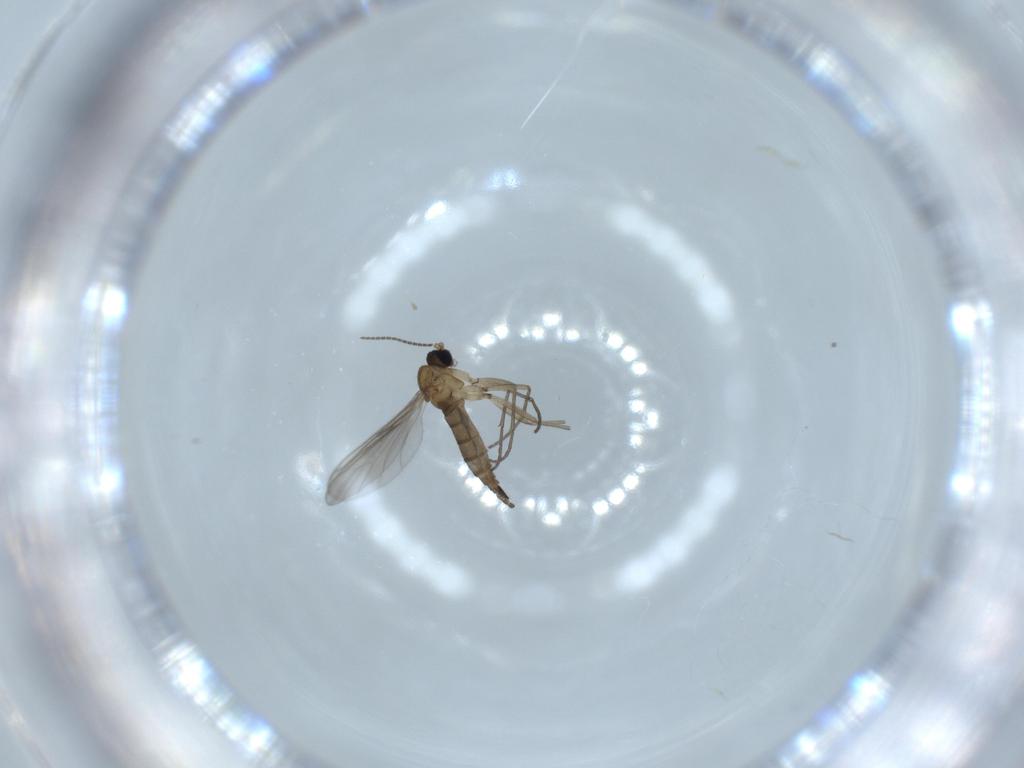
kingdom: Animalia
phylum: Arthropoda
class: Insecta
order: Diptera
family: Sciaridae
